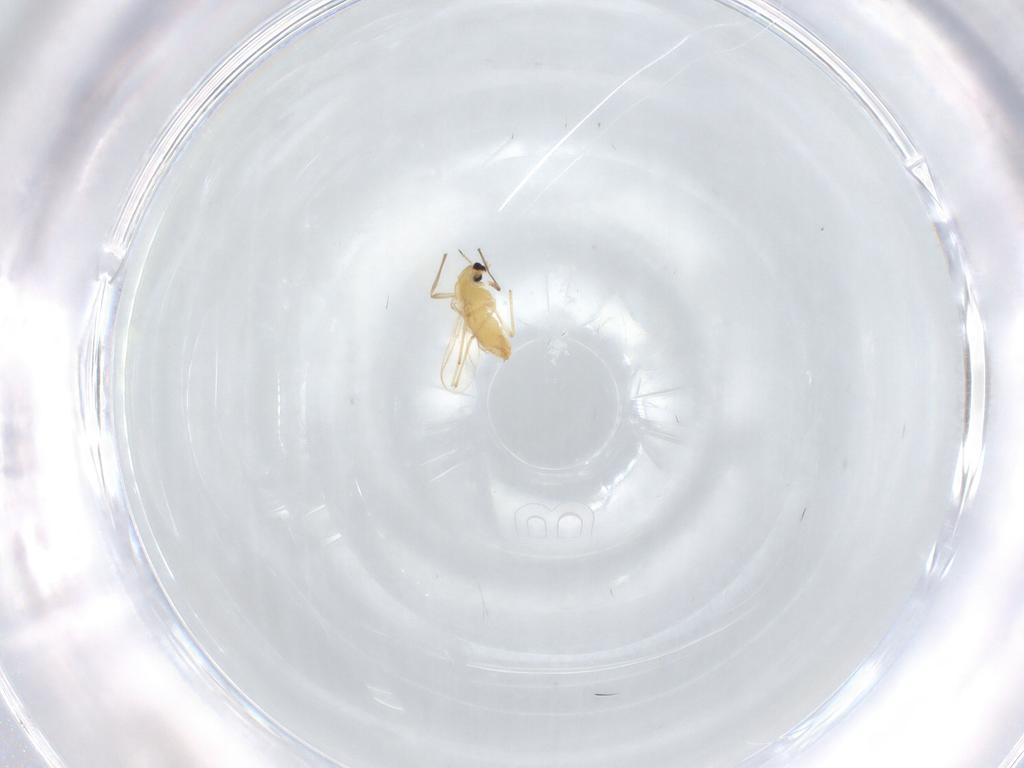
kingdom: Animalia
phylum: Arthropoda
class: Insecta
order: Diptera
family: Chironomidae
